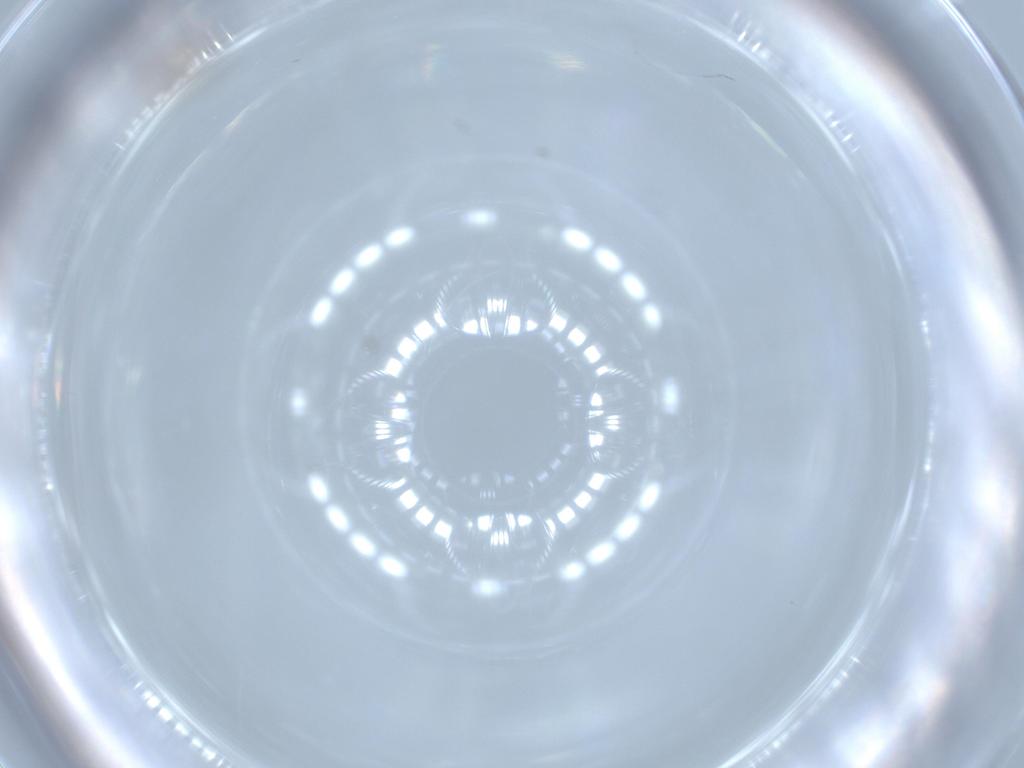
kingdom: Animalia
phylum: Arthropoda
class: Insecta
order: Diptera
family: Cecidomyiidae
